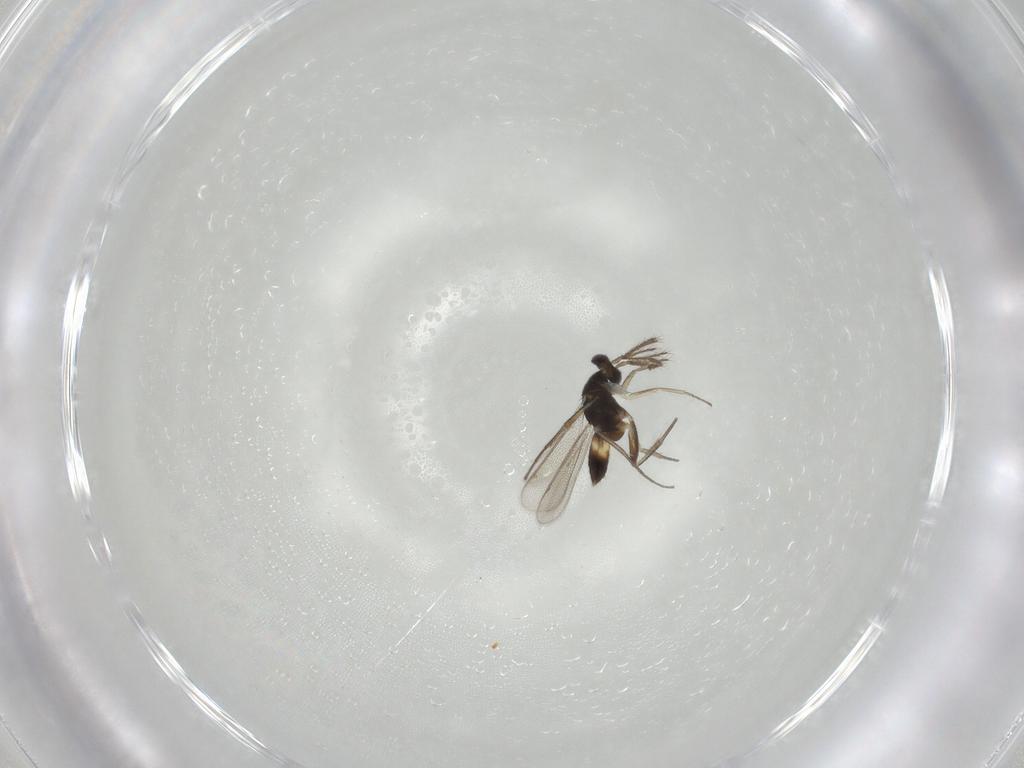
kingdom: Animalia
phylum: Arthropoda
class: Insecta
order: Hymenoptera
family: Bethylidae
